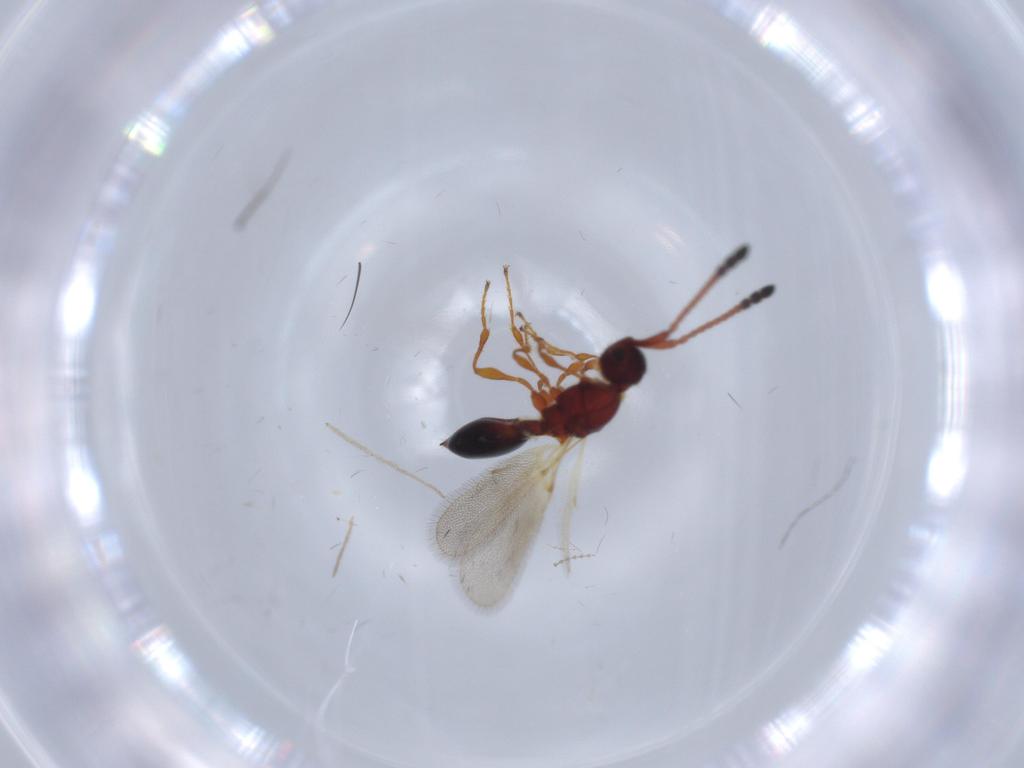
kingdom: Animalia
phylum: Arthropoda
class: Insecta
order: Hymenoptera
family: Diapriidae
